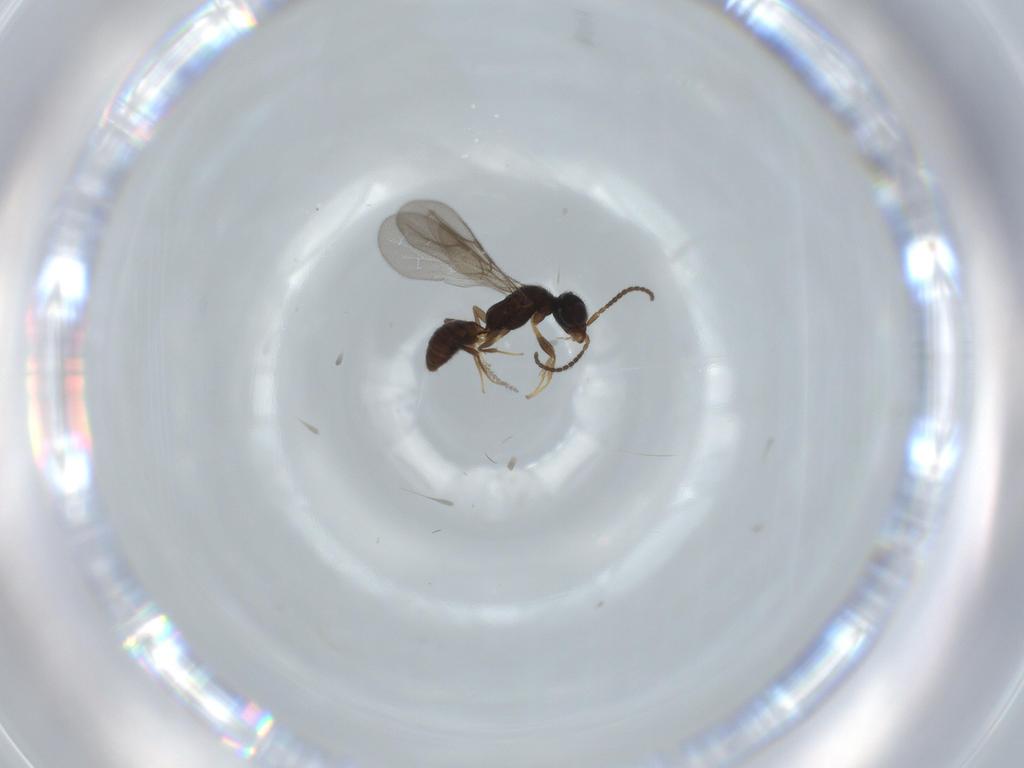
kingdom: Animalia
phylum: Arthropoda
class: Insecta
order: Hymenoptera
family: Bethylidae
